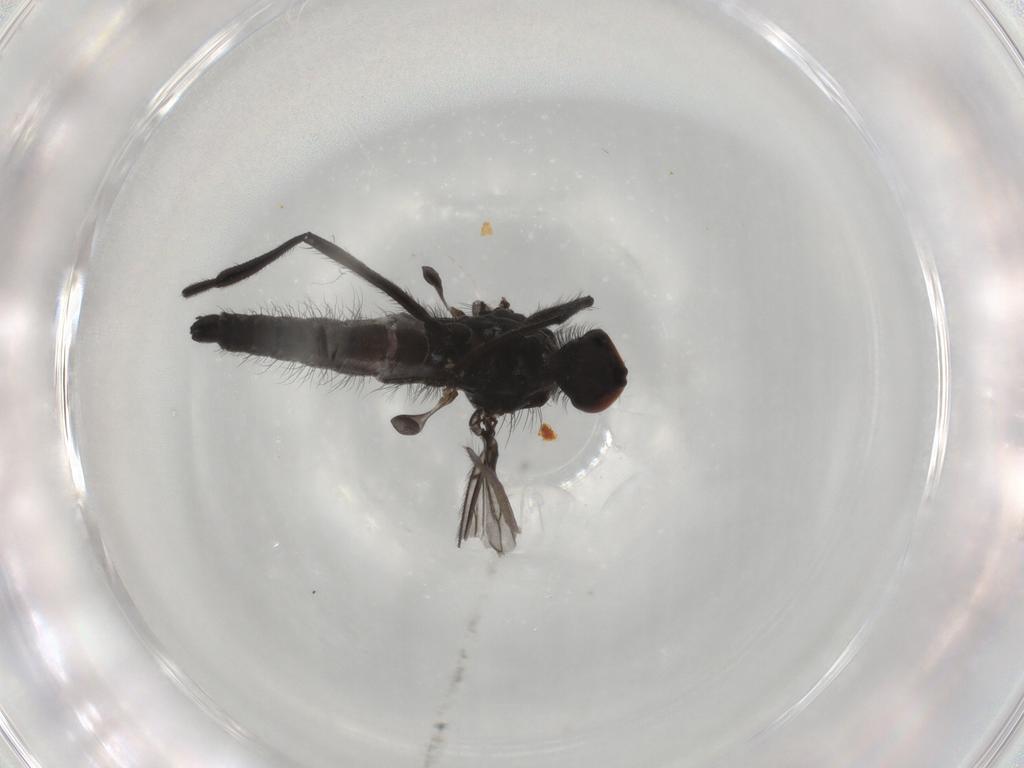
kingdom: Animalia
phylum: Arthropoda
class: Insecta
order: Diptera
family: Hybotidae
